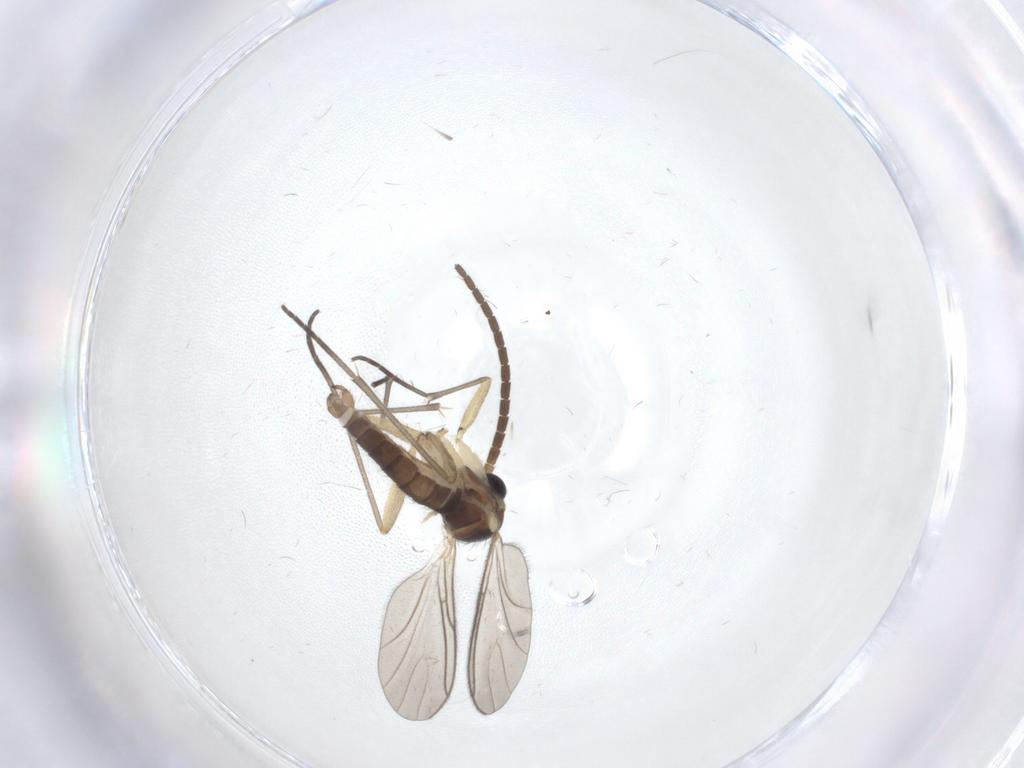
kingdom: Animalia
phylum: Arthropoda
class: Insecta
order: Diptera
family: Sciaridae
